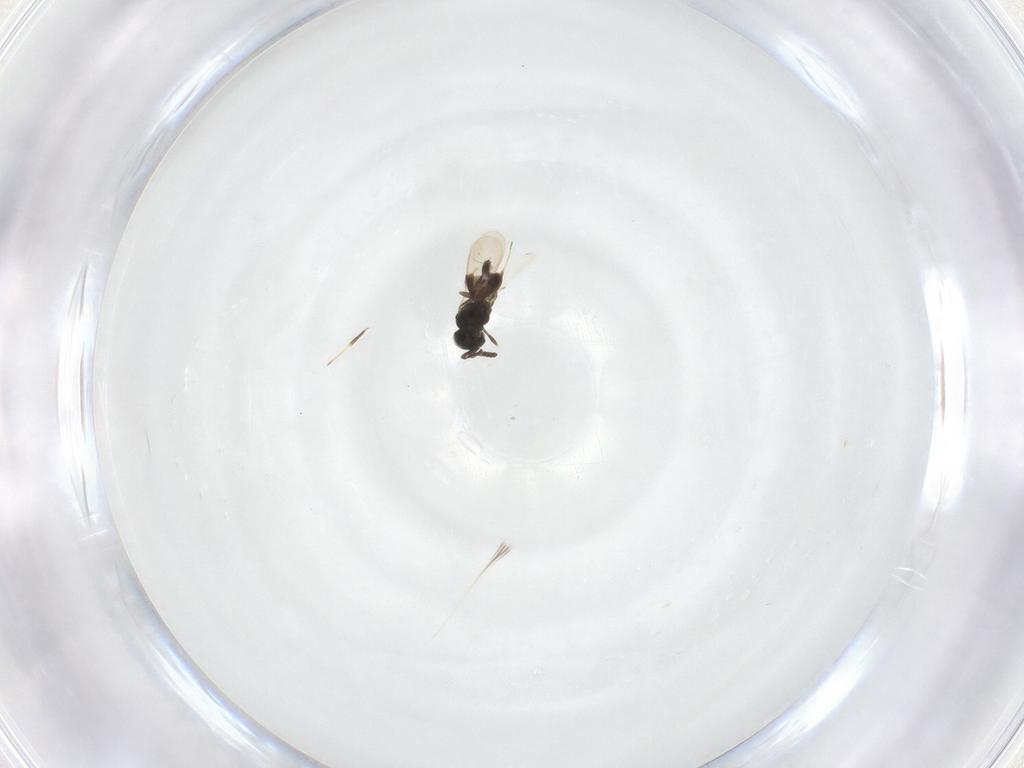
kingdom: Animalia
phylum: Arthropoda
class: Insecta
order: Hymenoptera
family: Scelionidae
